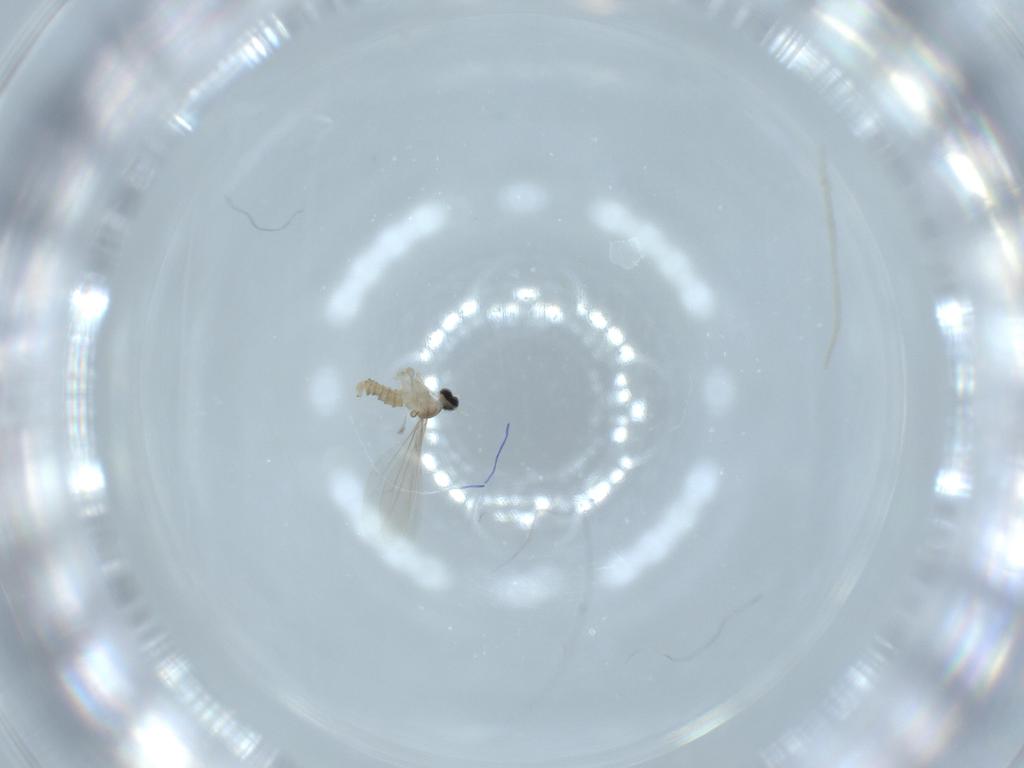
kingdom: Animalia
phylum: Arthropoda
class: Insecta
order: Diptera
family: Cecidomyiidae
